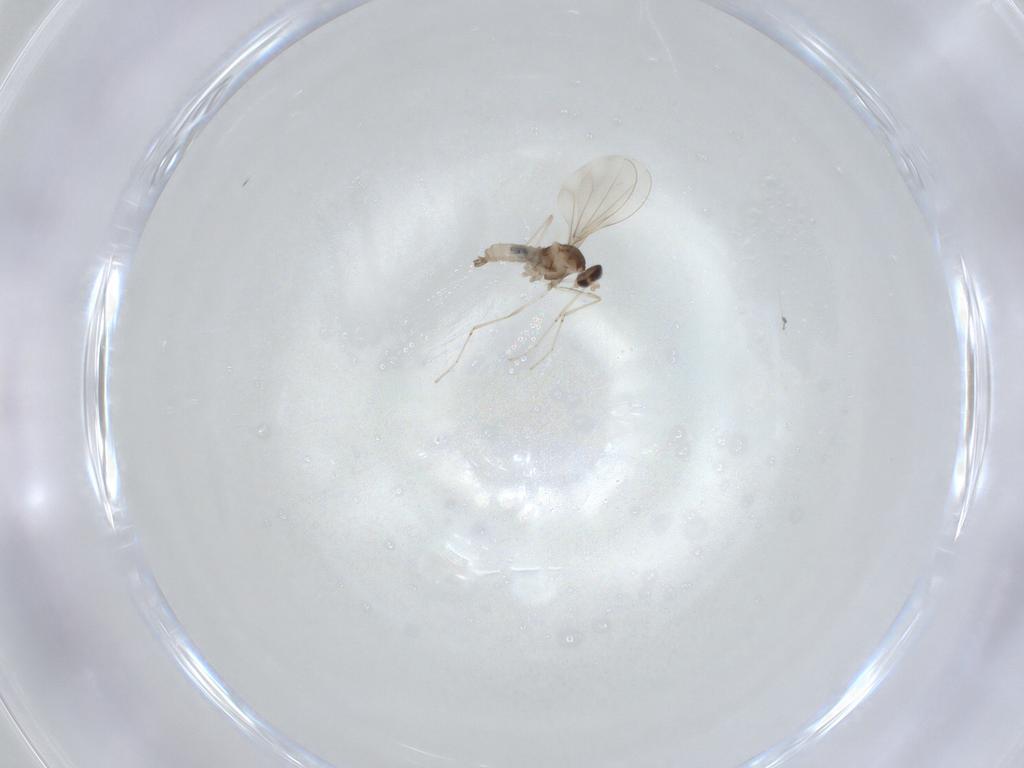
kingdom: Animalia
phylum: Arthropoda
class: Insecta
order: Diptera
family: Cecidomyiidae
